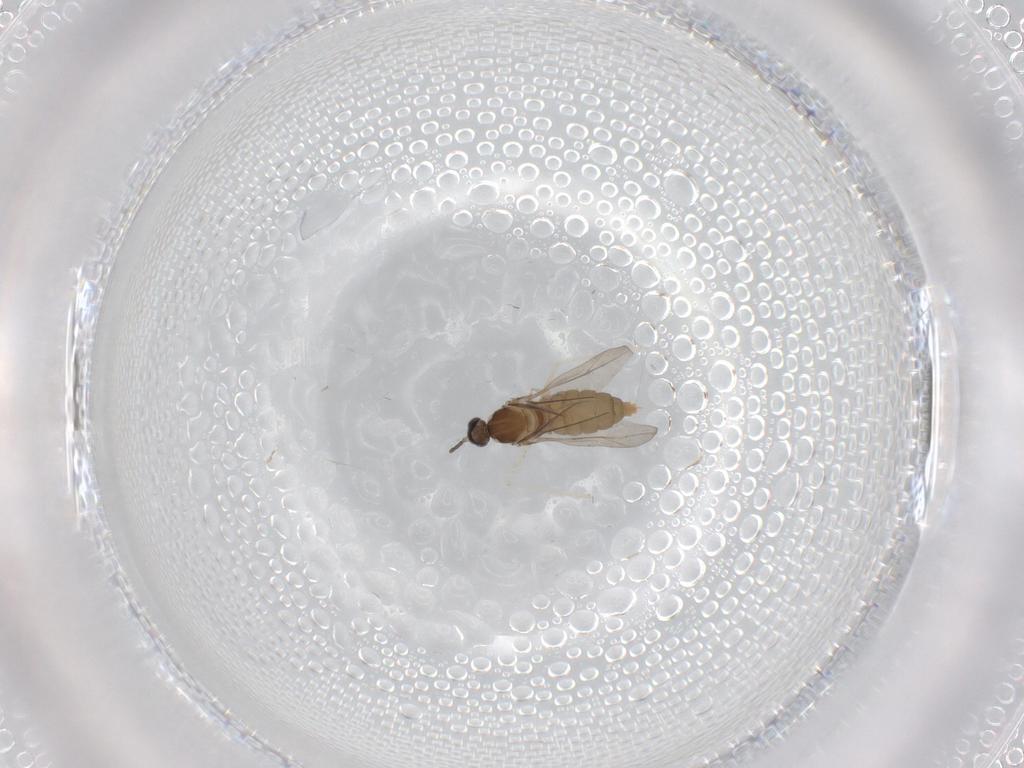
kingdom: Animalia
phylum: Arthropoda
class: Insecta
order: Diptera
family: Cecidomyiidae
